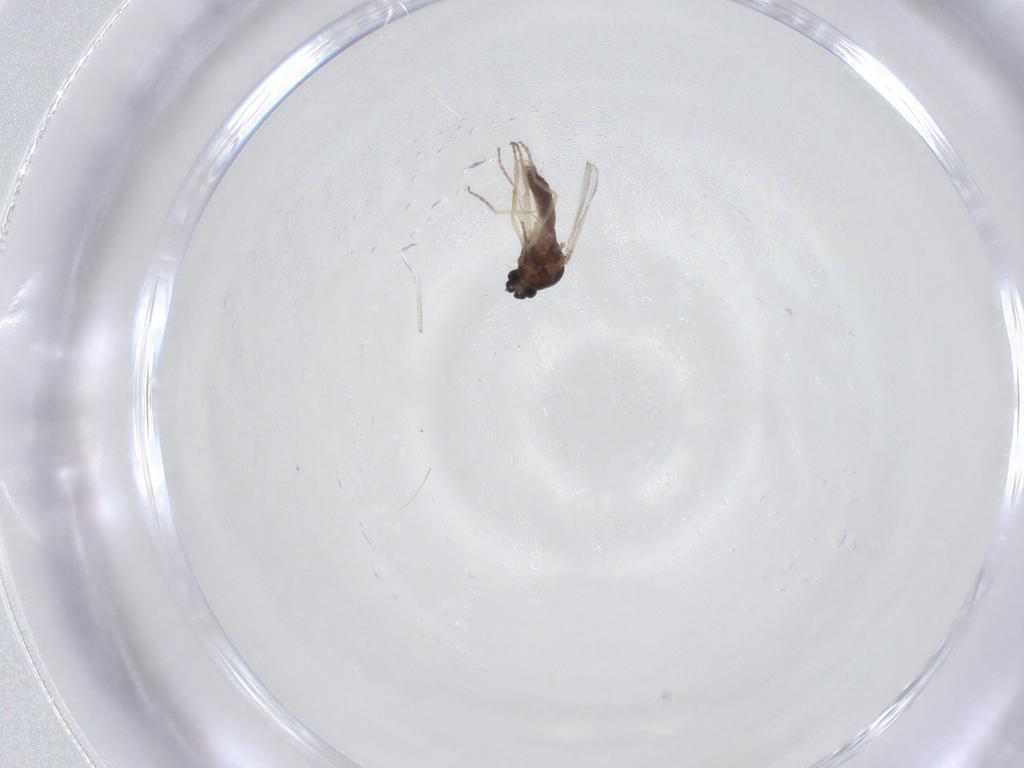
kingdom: Animalia
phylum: Arthropoda
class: Insecta
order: Diptera
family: Ceratopogonidae
